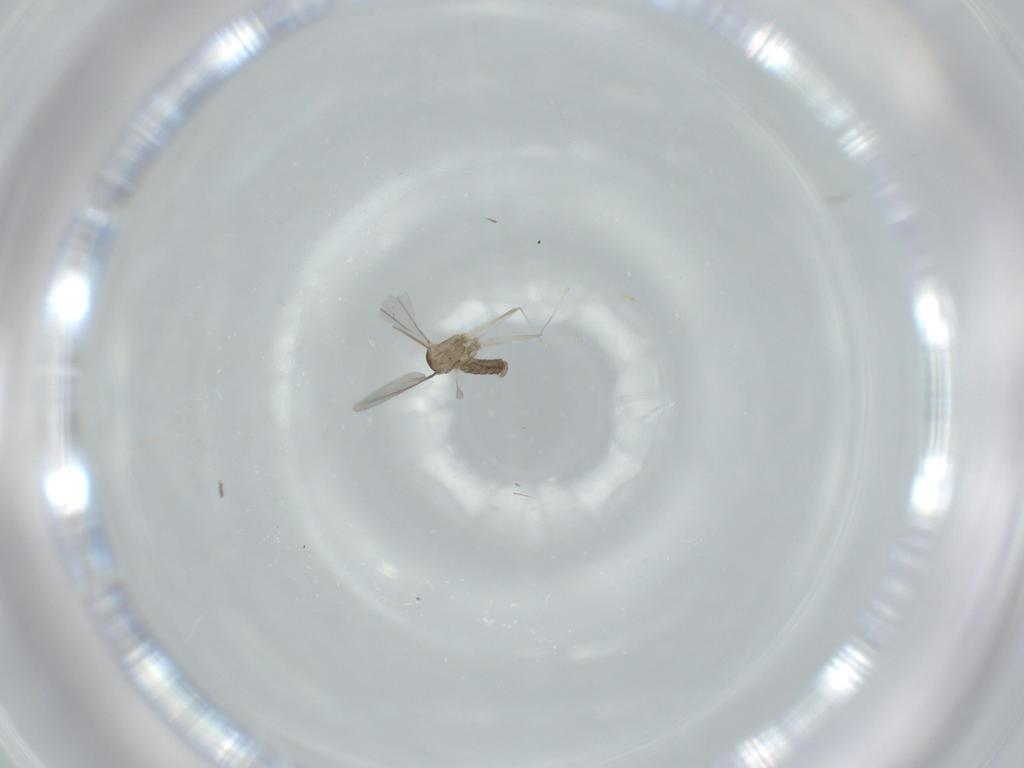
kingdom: Animalia
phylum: Arthropoda
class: Insecta
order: Diptera
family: Cecidomyiidae
